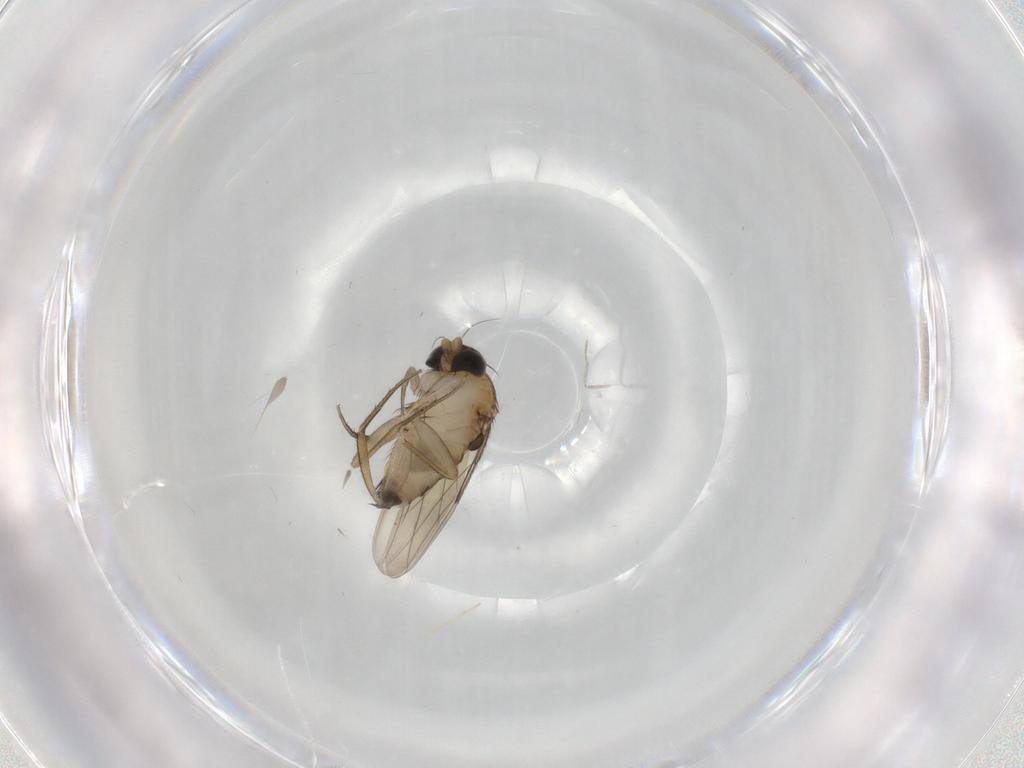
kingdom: Animalia
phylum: Arthropoda
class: Insecta
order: Diptera
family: Phoridae
